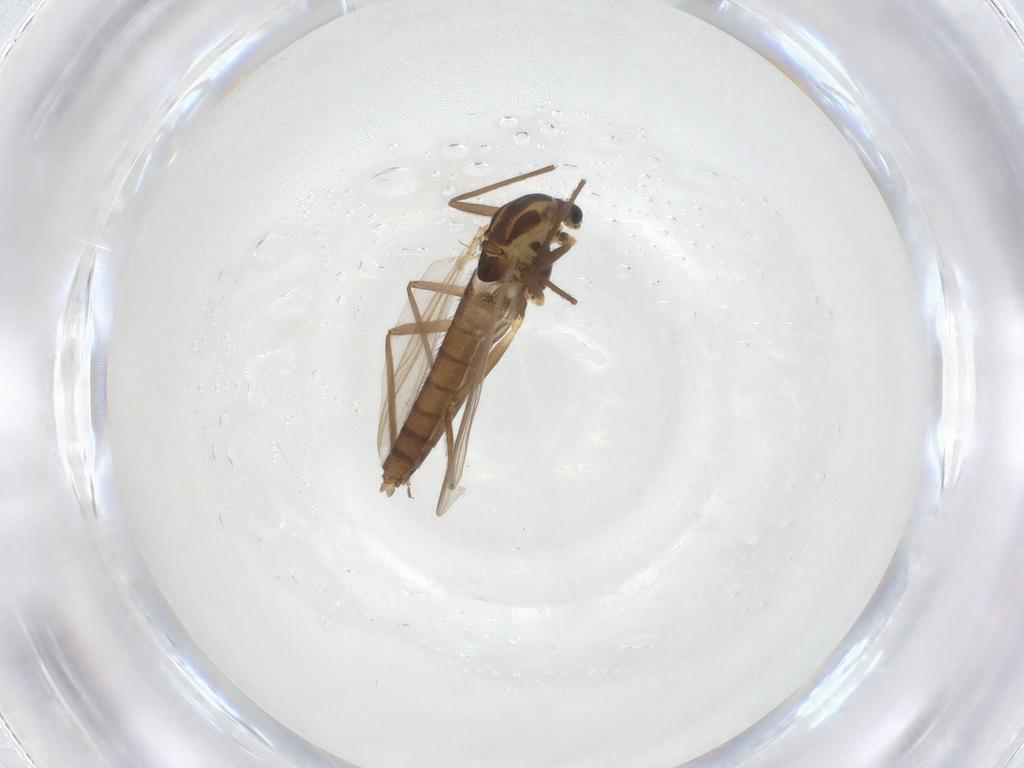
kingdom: Animalia
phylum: Arthropoda
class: Insecta
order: Diptera
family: Chironomidae
